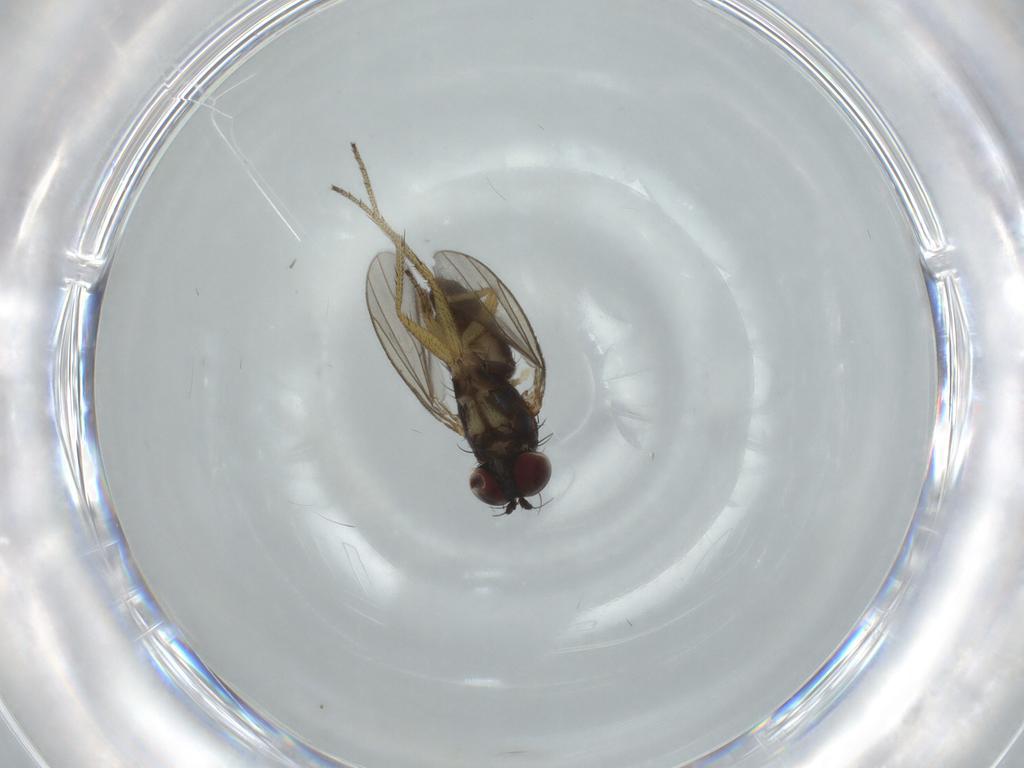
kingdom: Animalia
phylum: Arthropoda
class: Insecta
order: Diptera
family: Dolichopodidae
